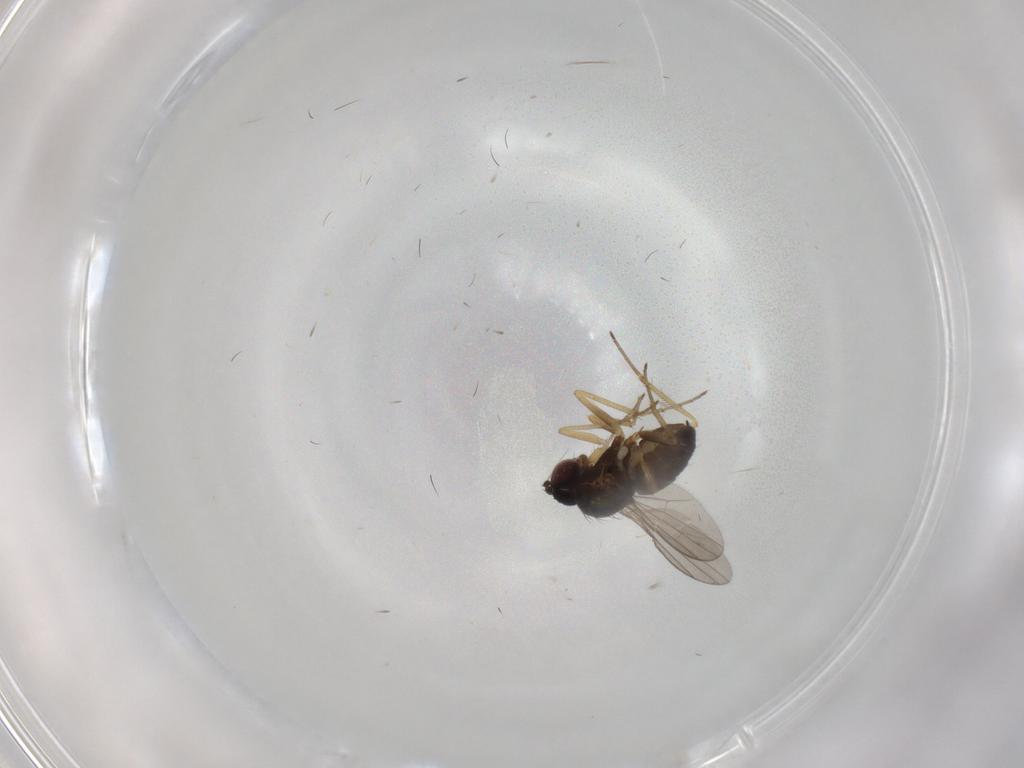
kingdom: Animalia
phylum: Arthropoda
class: Insecta
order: Diptera
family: Dolichopodidae
